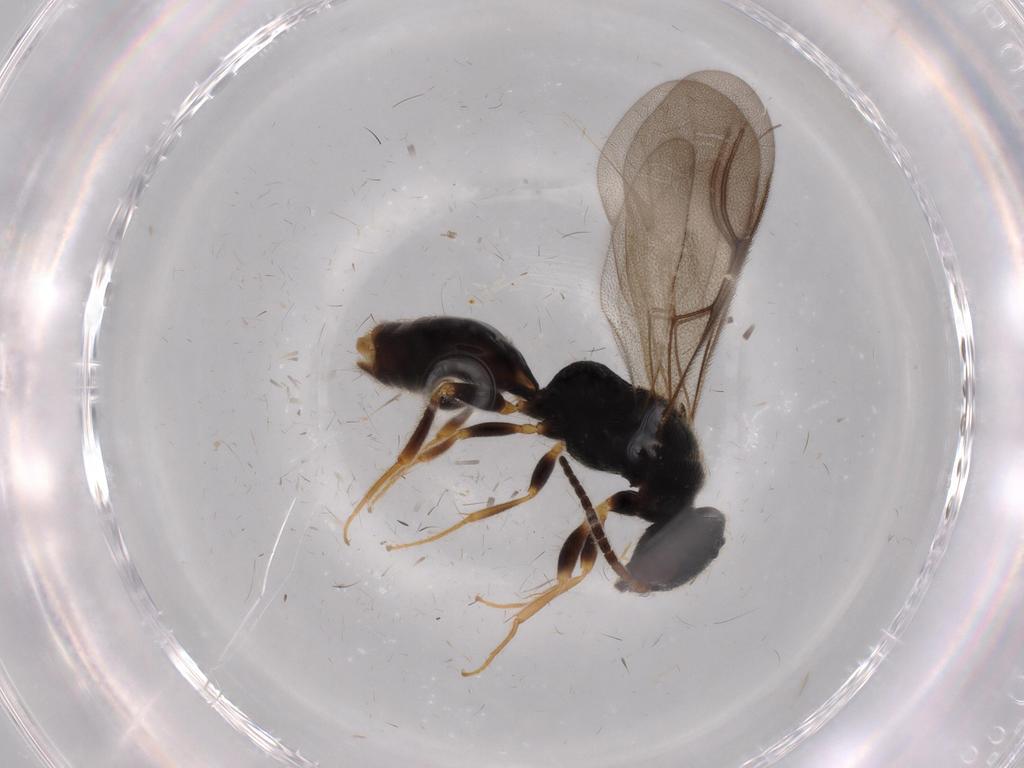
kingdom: Animalia
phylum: Arthropoda
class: Insecta
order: Hymenoptera
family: Bethylidae
